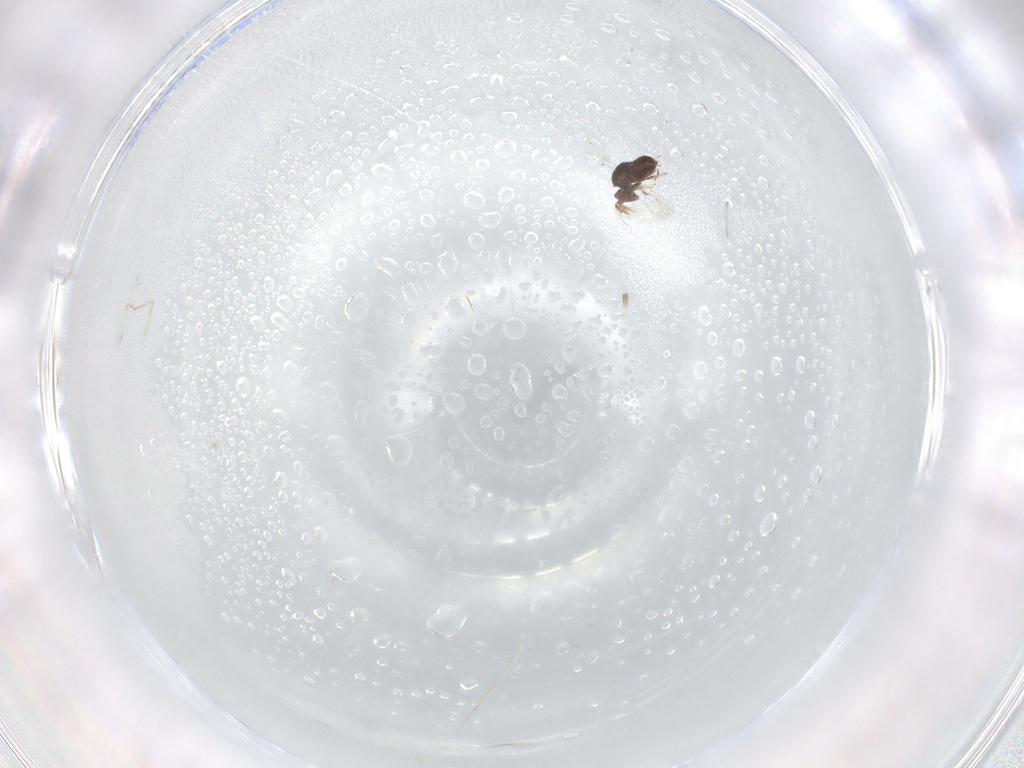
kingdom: Animalia
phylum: Arthropoda
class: Insecta
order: Hymenoptera
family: Trichogrammatidae
